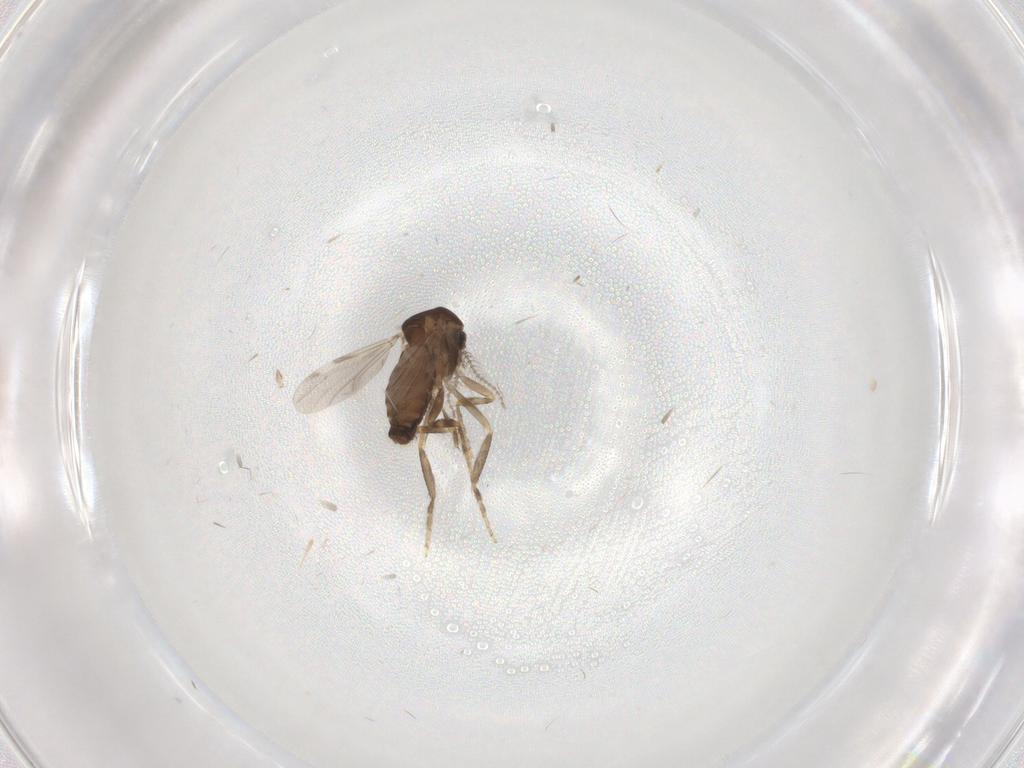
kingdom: Animalia
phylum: Arthropoda
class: Insecta
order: Diptera
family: Ceratopogonidae
